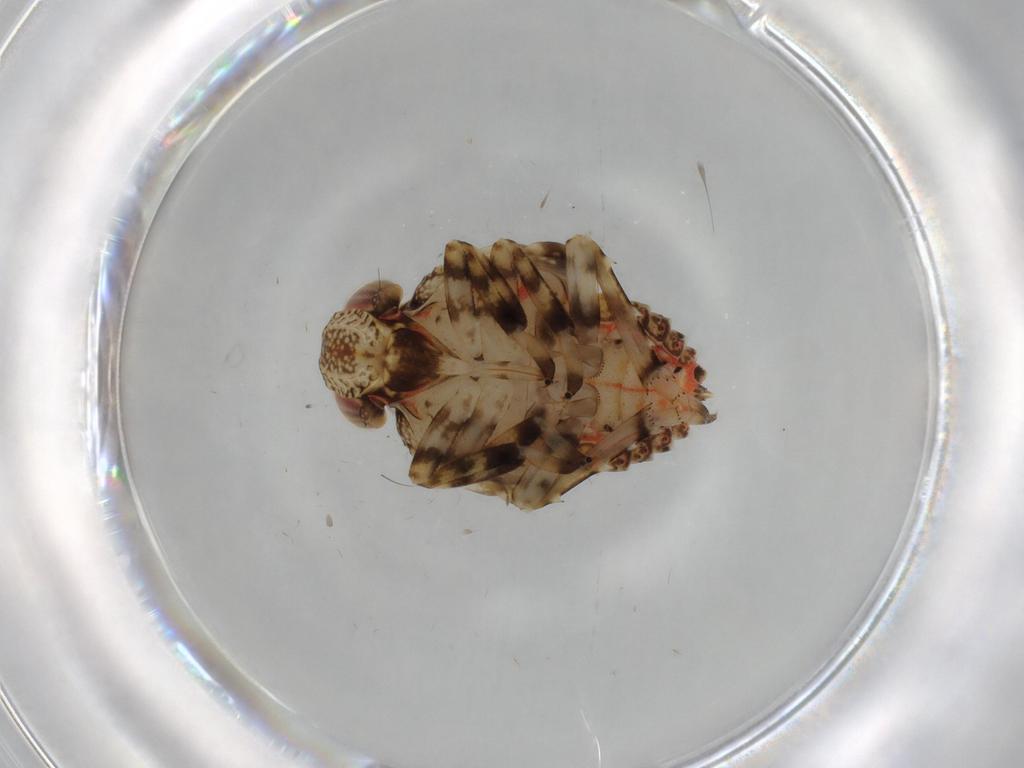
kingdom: Animalia
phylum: Arthropoda
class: Insecta
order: Hemiptera
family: Issidae
